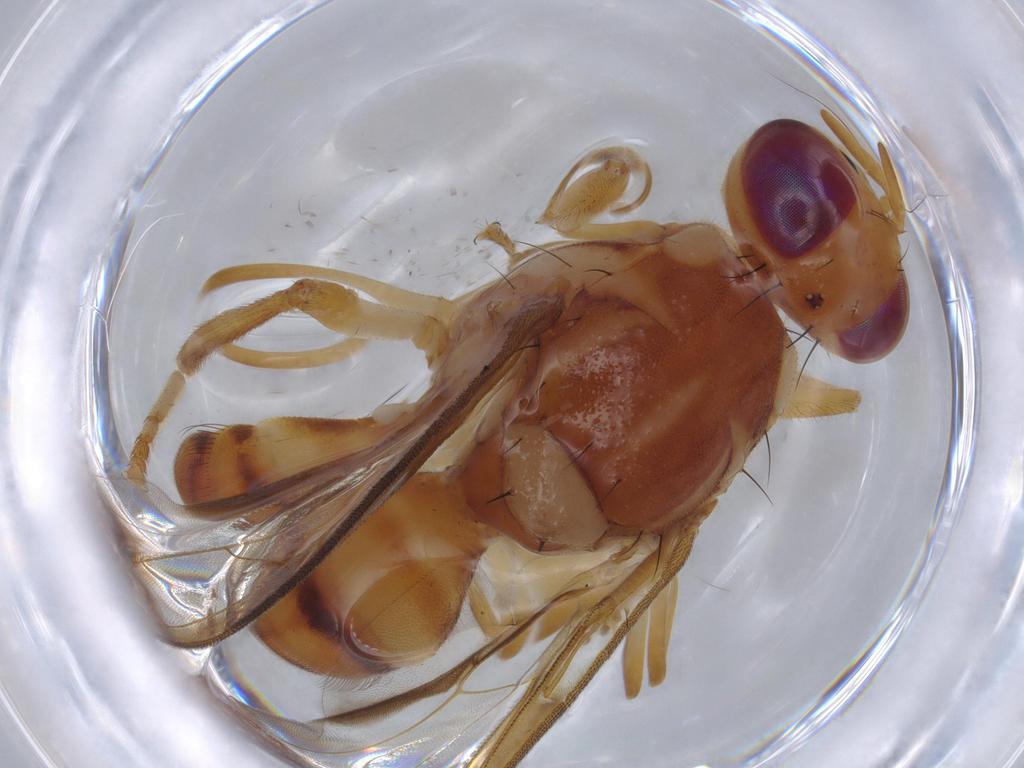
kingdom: Animalia
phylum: Arthropoda
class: Insecta
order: Diptera
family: Tephritidae
